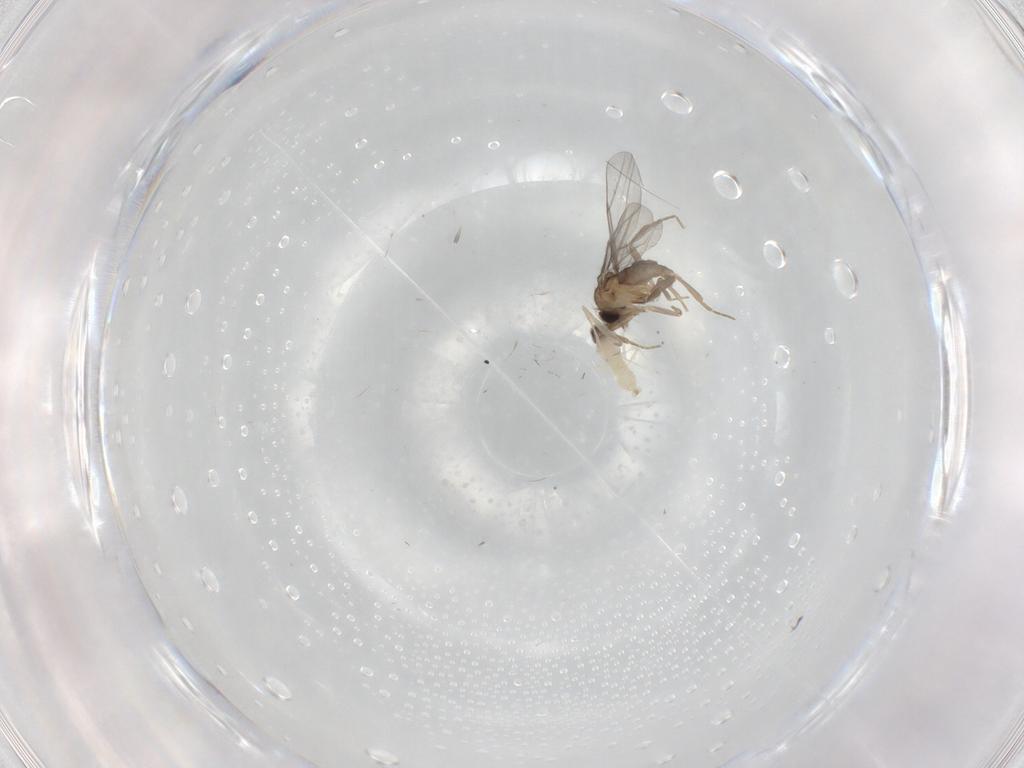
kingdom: Animalia
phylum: Arthropoda
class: Insecta
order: Diptera
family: Cecidomyiidae
